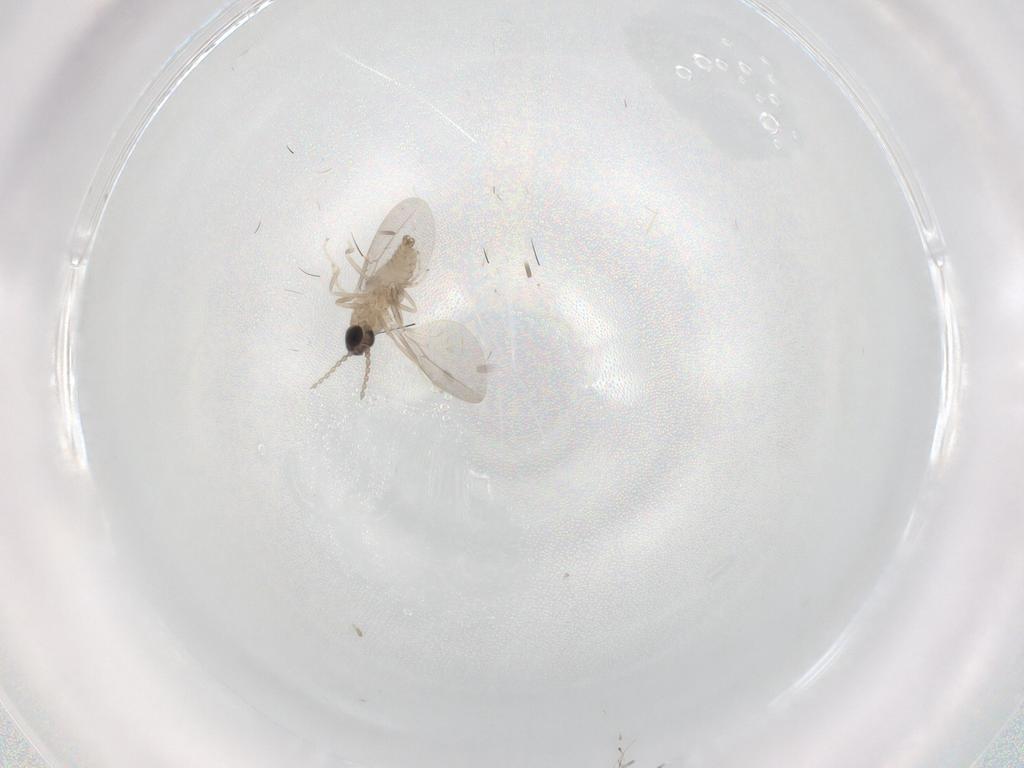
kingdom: Animalia
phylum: Arthropoda
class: Insecta
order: Diptera
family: Cecidomyiidae
